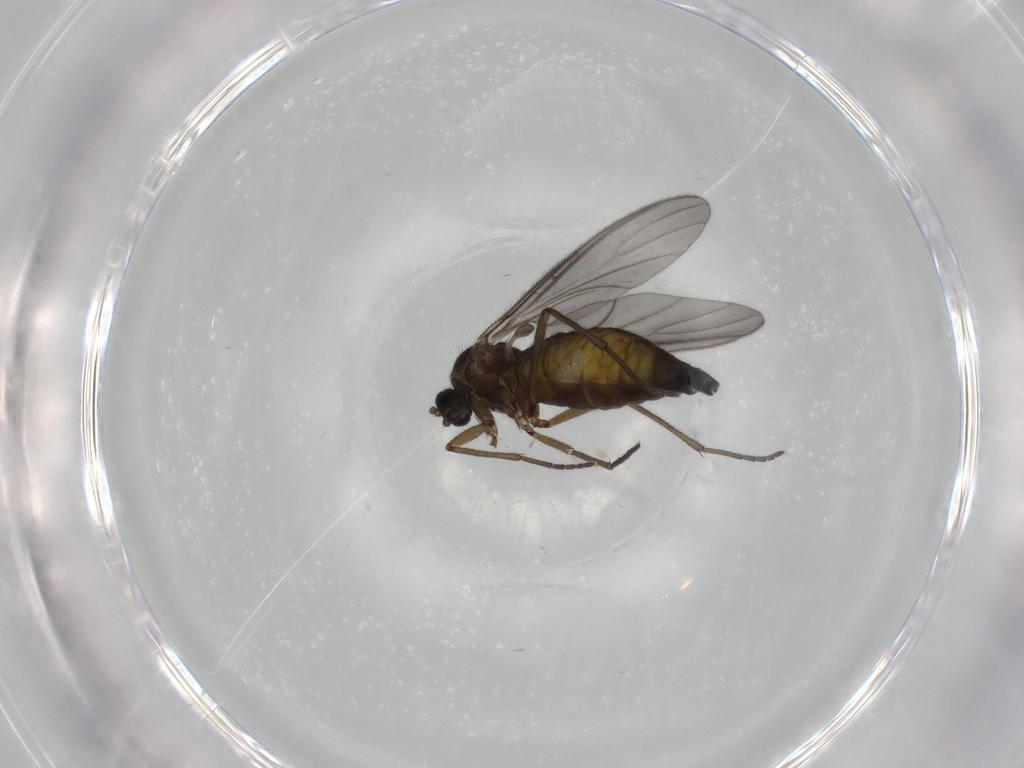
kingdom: Animalia
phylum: Arthropoda
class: Insecta
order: Diptera
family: Sciaridae
